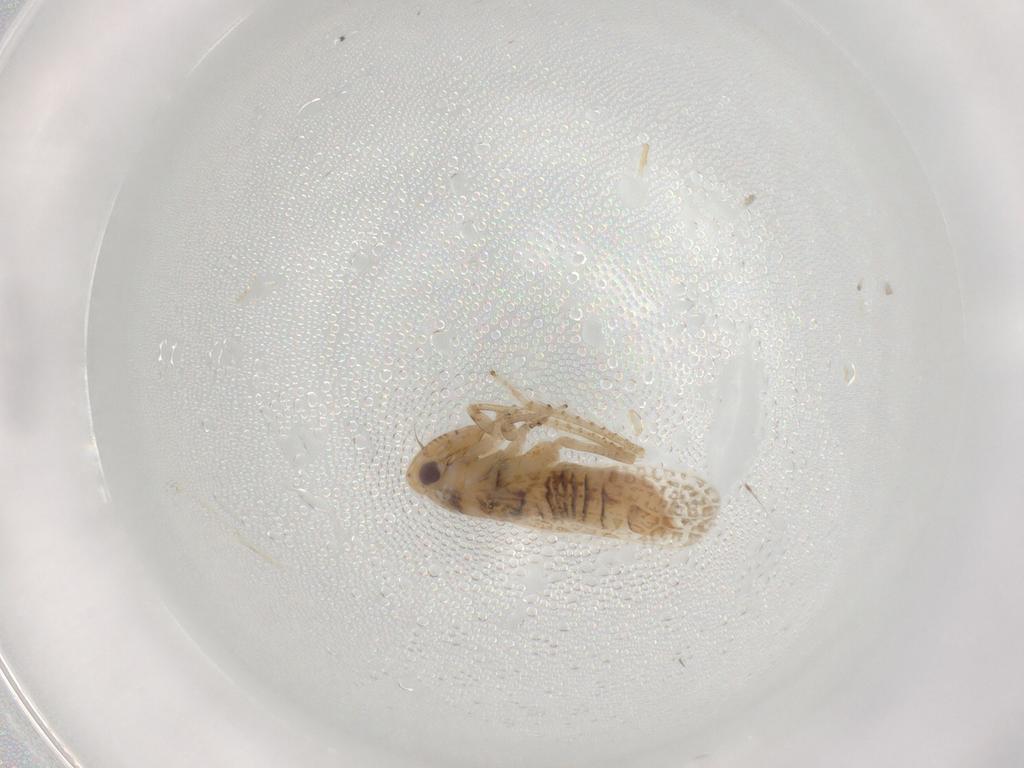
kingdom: Animalia
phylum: Arthropoda
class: Insecta
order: Hemiptera
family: Cicadellidae
